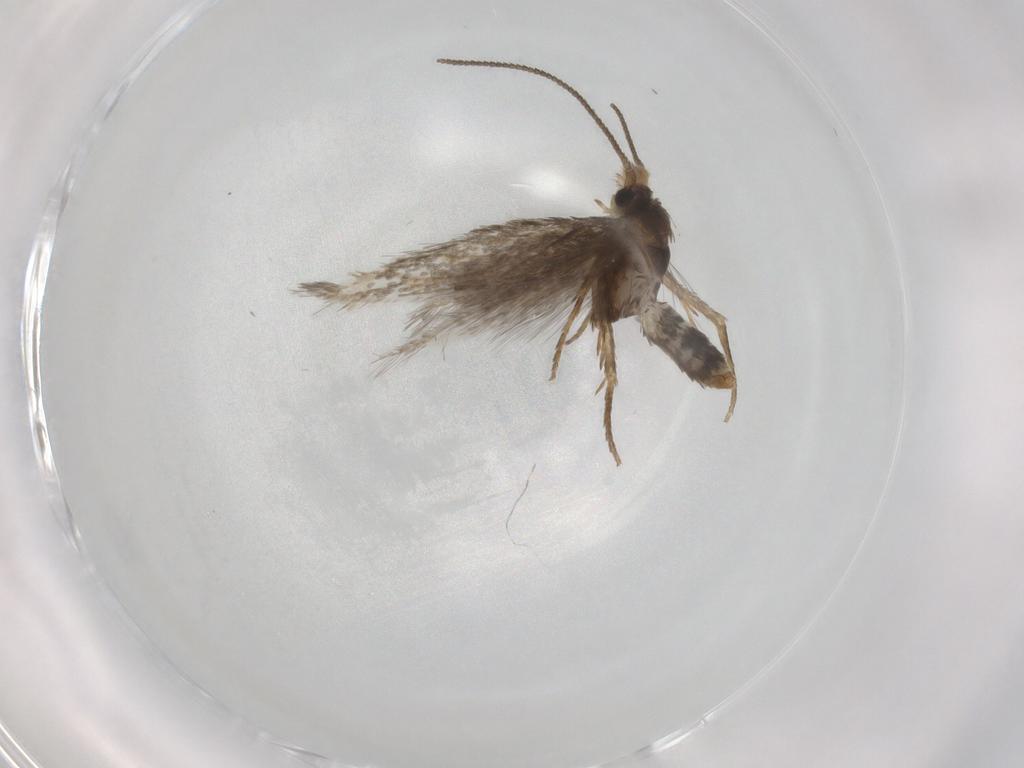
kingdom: Animalia
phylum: Arthropoda
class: Insecta
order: Lepidoptera
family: Nepticulidae
